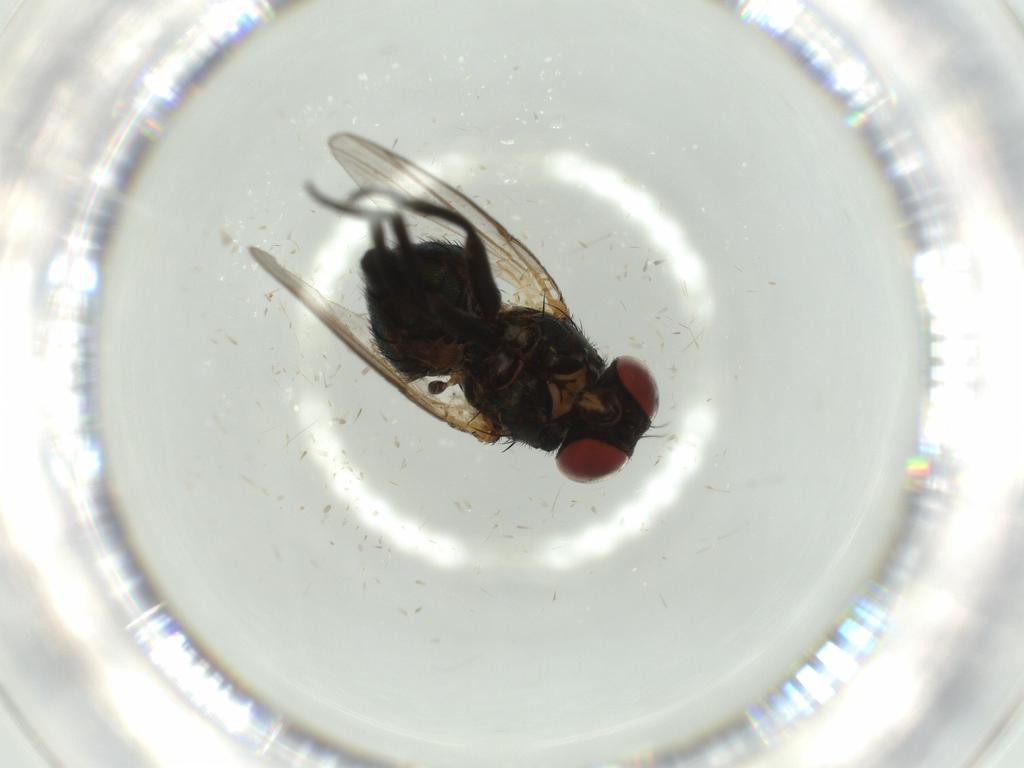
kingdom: Animalia
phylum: Arthropoda
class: Insecta
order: Diptera
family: Agromyzidae
